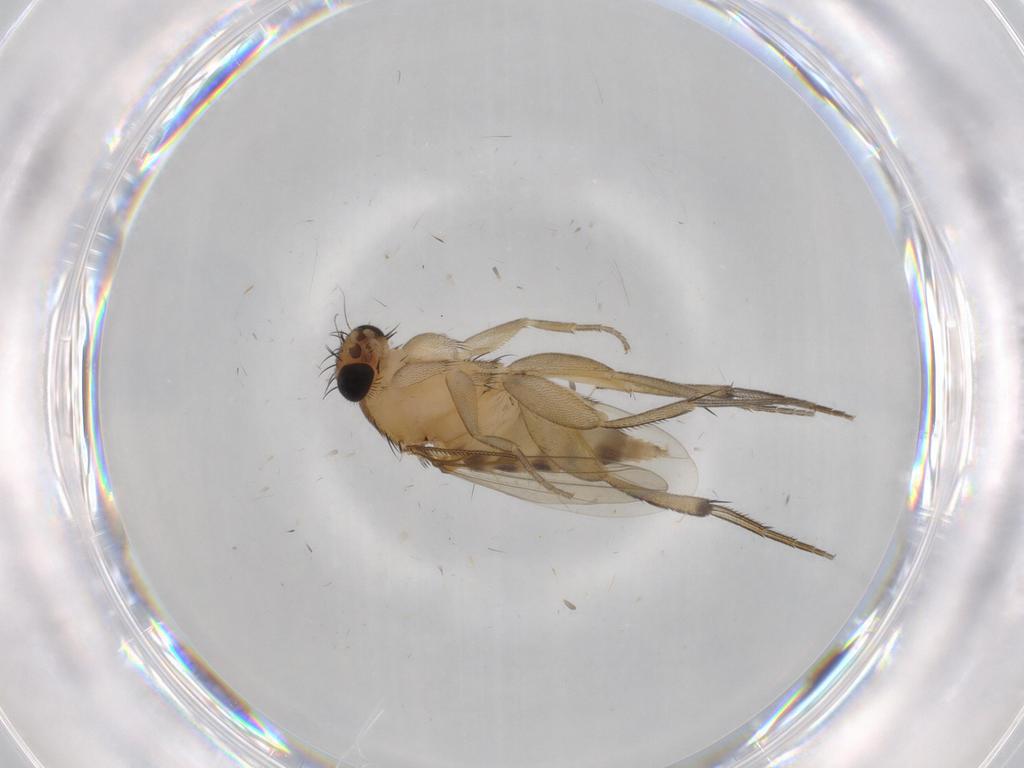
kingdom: Animalia
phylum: Arthropoda
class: Insecta
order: Diptera
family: Phoridae
